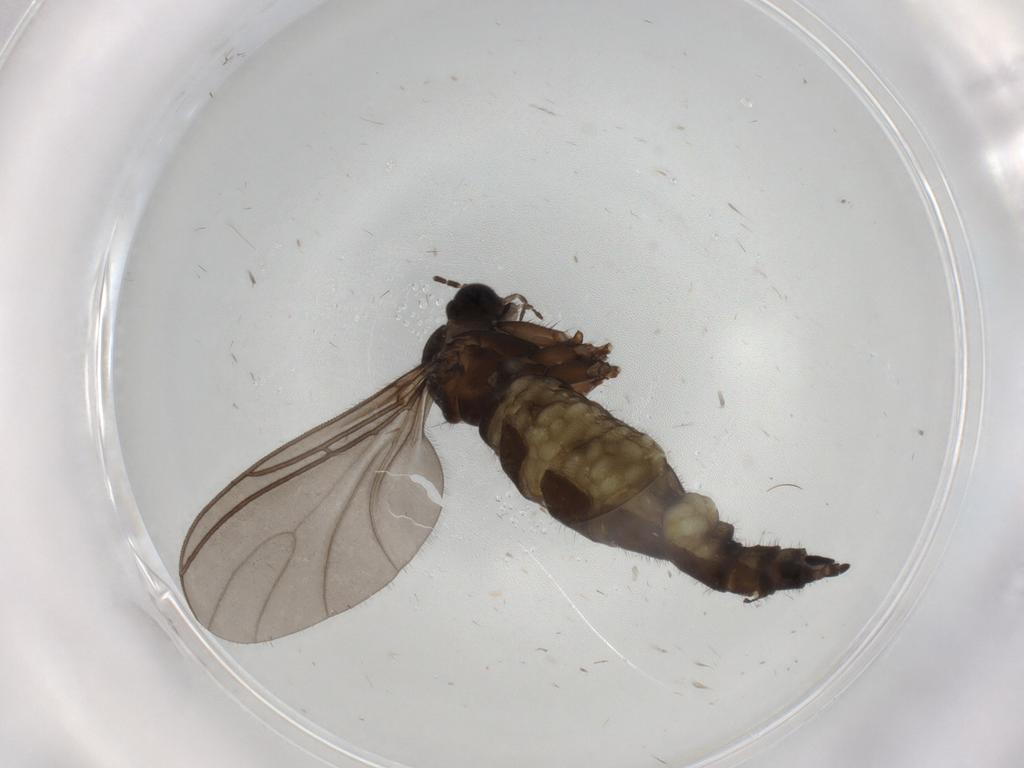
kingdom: Animalia
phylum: Arthropoda
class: Insecta
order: Diptera
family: Sciaridae
